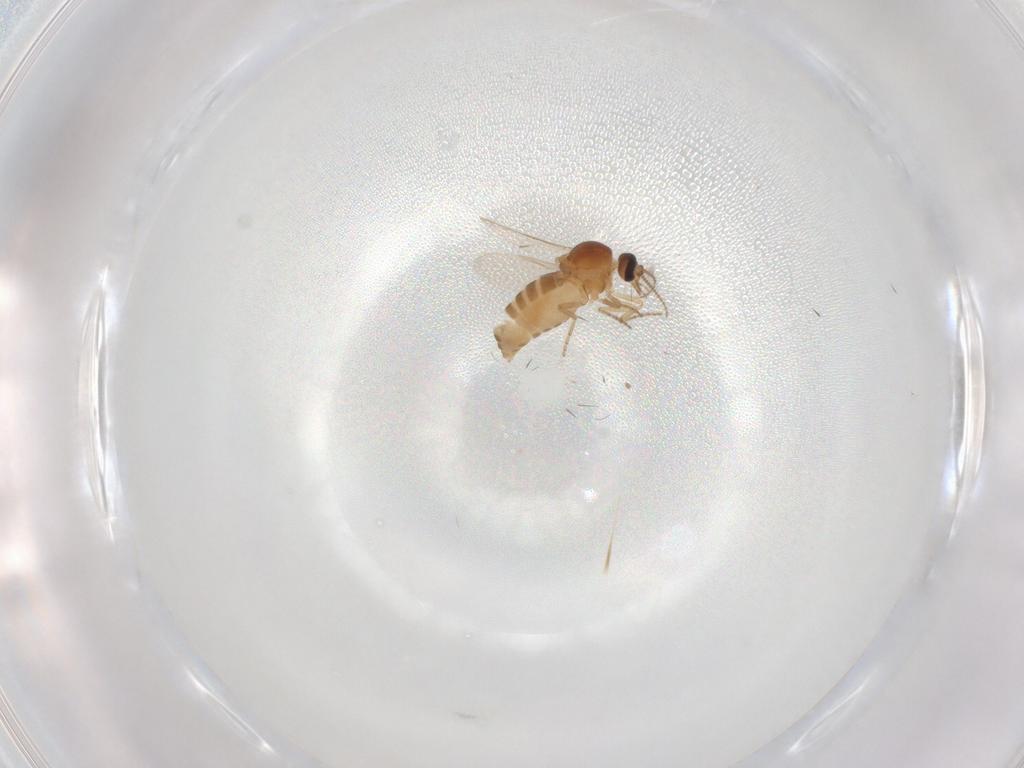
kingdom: Animalia
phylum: Arthropoda
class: Insecta
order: Diptera
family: Ceratopogonidae
